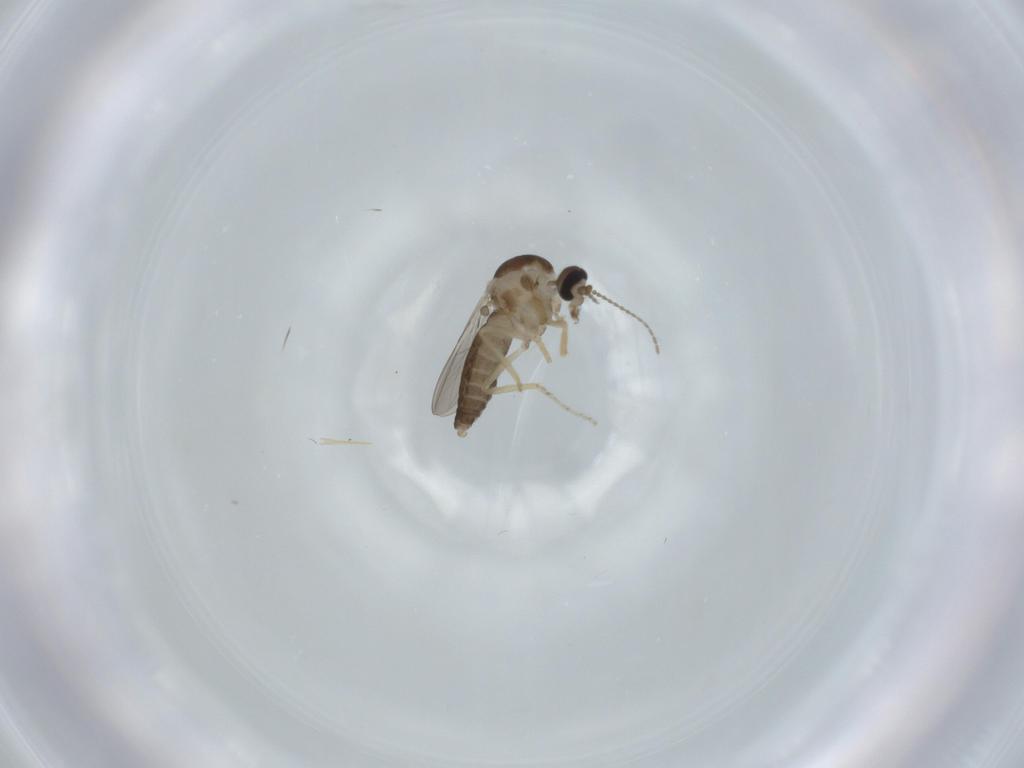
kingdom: Animalia
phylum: Arthropoda
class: Insecta
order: Diptera
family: Ceratopogonidae
